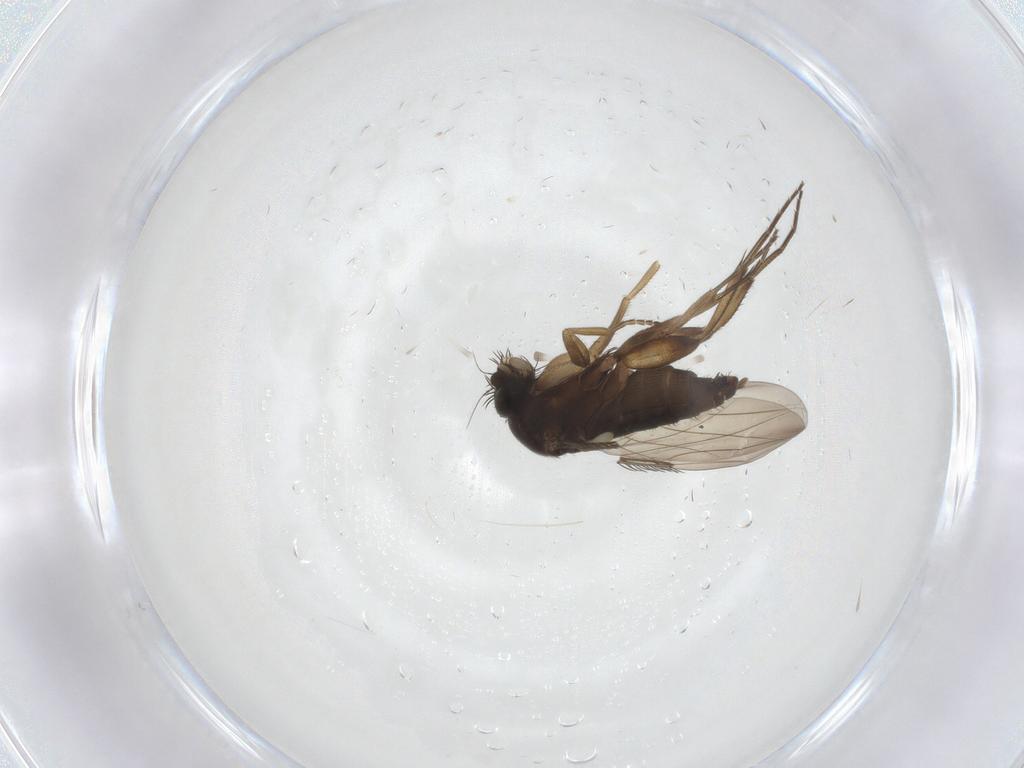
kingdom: Animalia
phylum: Arthropoda
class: Insecta
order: Diptera
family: Phoridae
